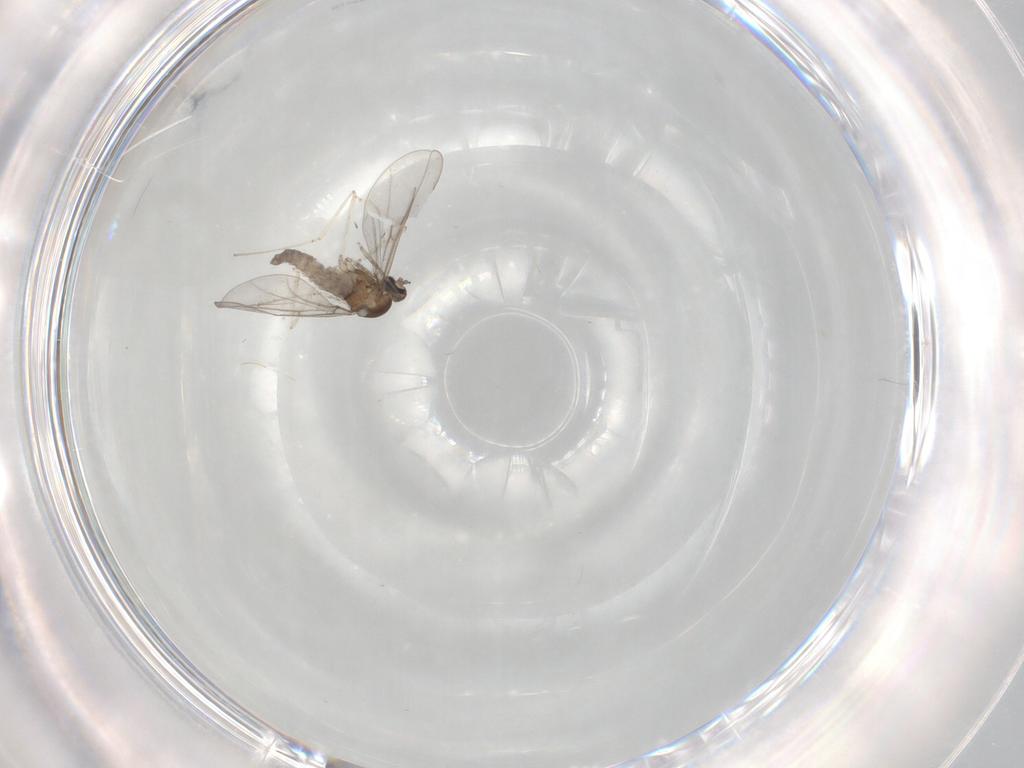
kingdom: Animalia
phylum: Arthropoda
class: Insecta
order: Diptera
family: Cecidomyiidae
